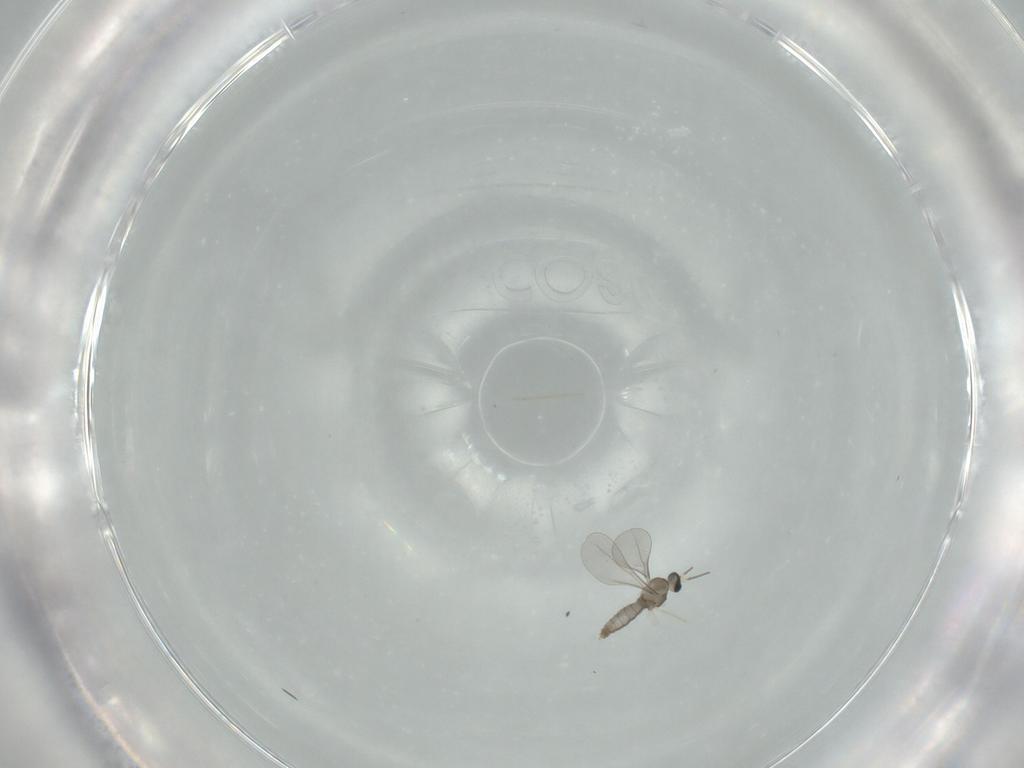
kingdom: Animalia
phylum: Arthropoda
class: Insecta
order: Diptera
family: Cecidomyiidae
